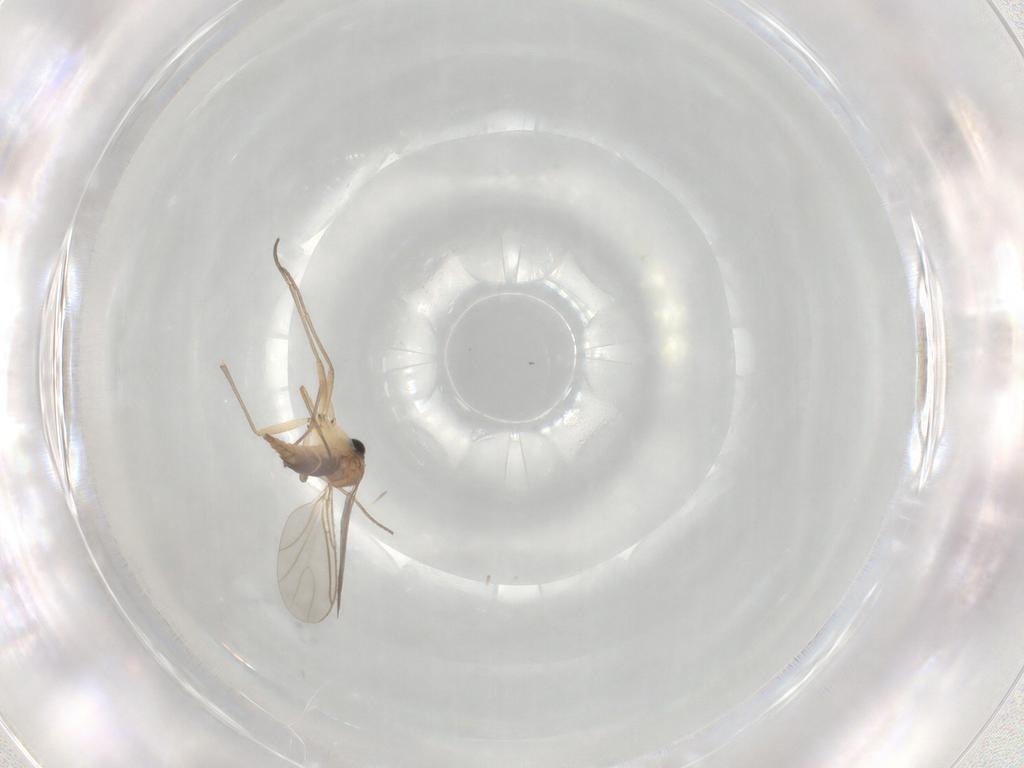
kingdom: Animalia
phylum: Arthropoda
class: Insecta
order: Diptera
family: Sciaridae
